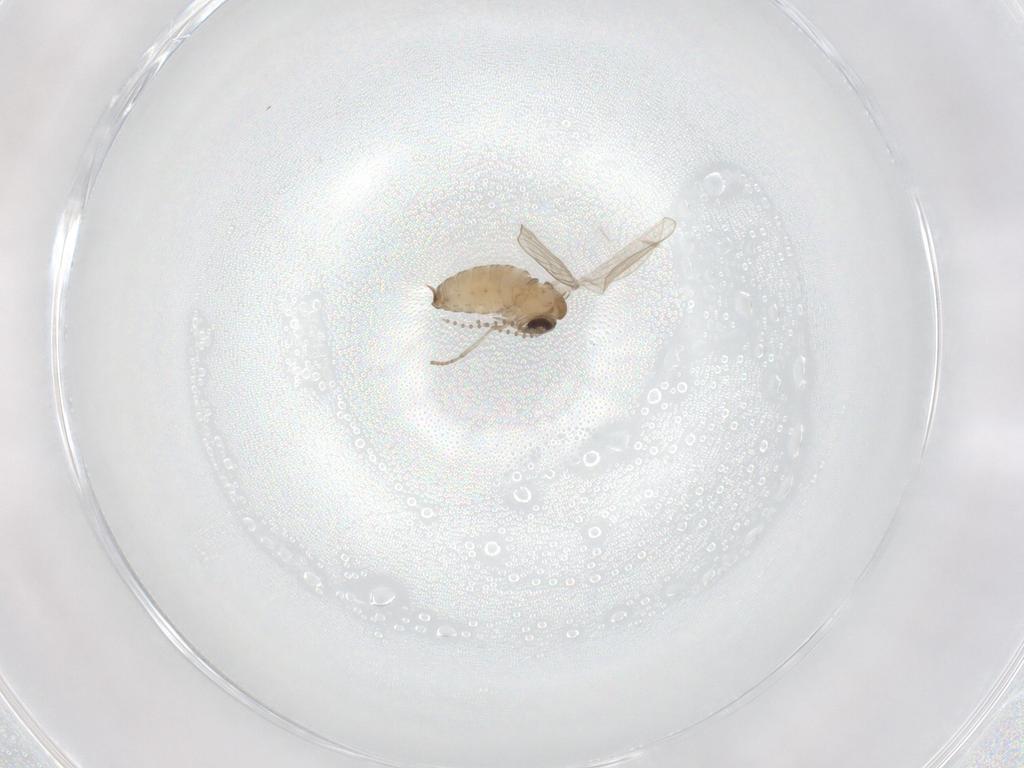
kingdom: Animalia
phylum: Arthropoda
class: Insecta
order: Diptera
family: Psychodidae
